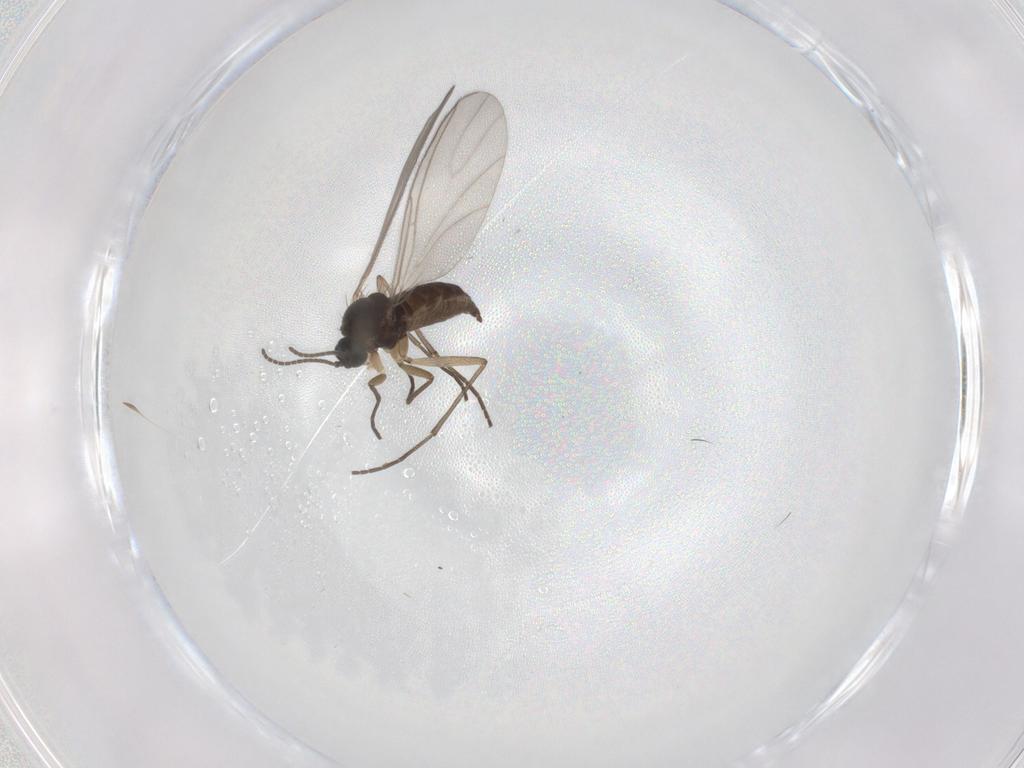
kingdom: Animalia
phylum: Arthropoda
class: Insecta
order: Diptera
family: Sciaridae
